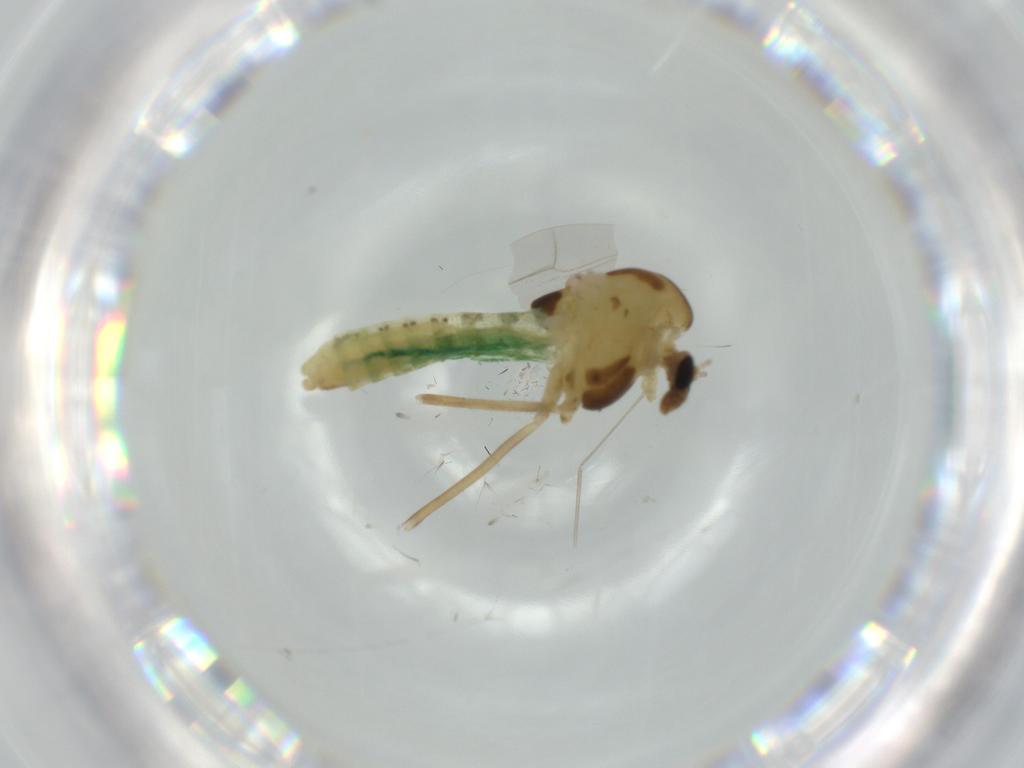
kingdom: Animalia
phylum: Arthropoda
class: Insecta
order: Diptera
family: Chironomidae
